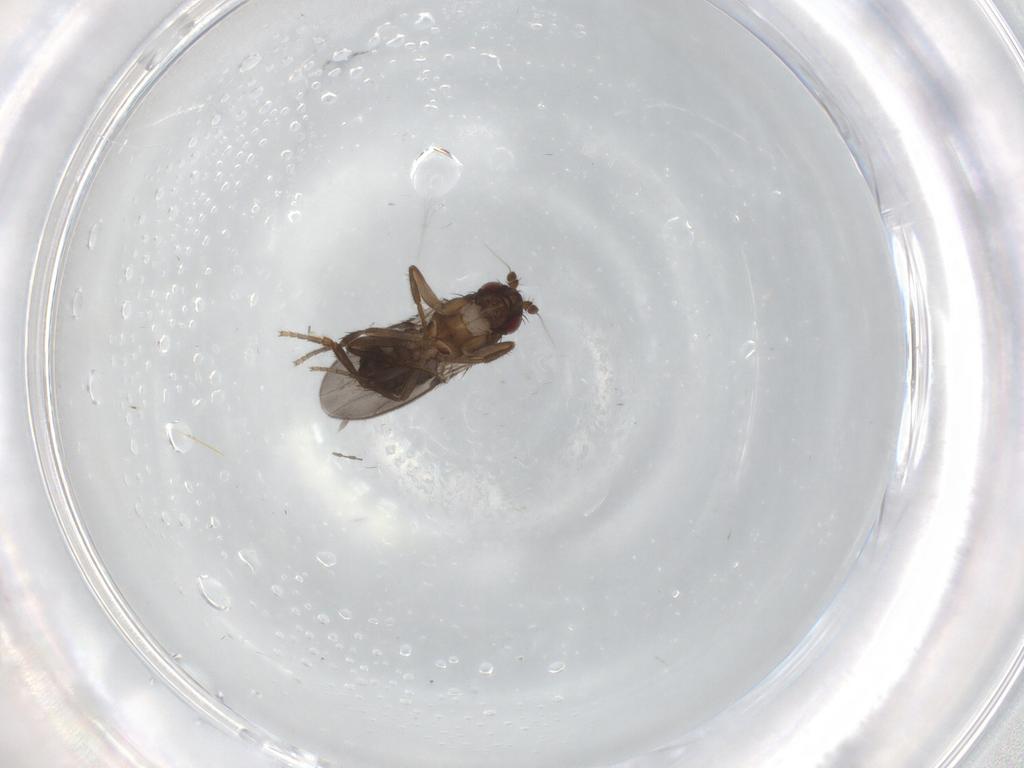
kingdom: Animalia
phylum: Arthropoda
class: Insecta
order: Diptera
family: Sphaeroceridae
